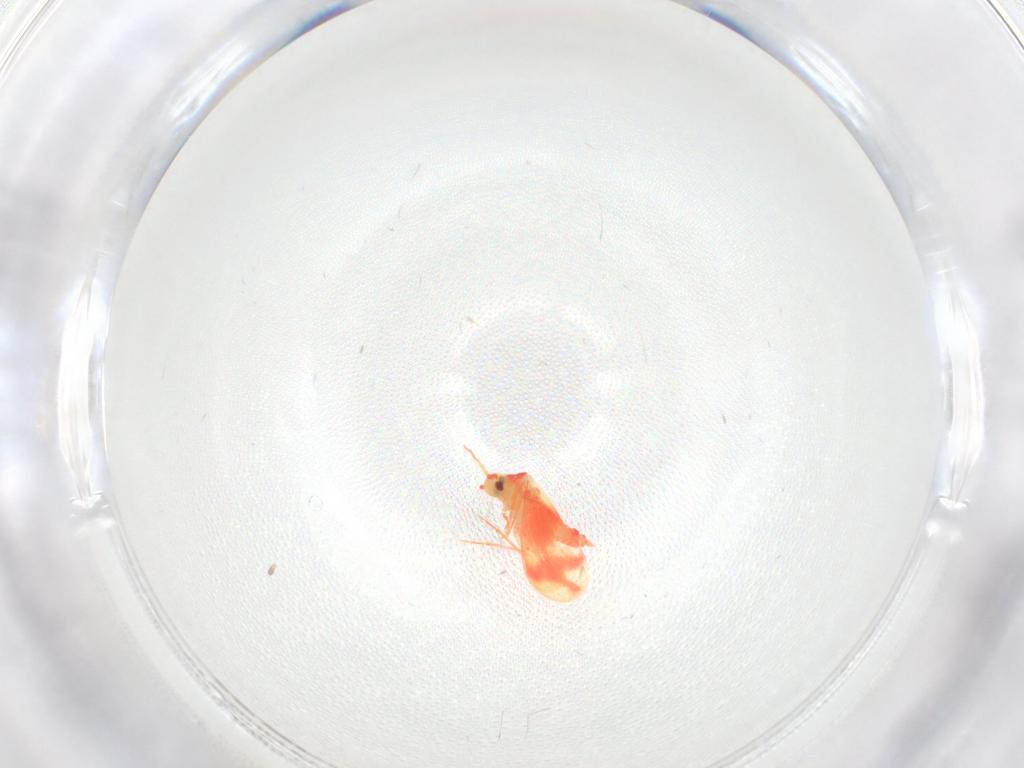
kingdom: Animalia
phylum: Arthropoda
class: Insecta
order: Hemiptera
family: Aleyrodidae
